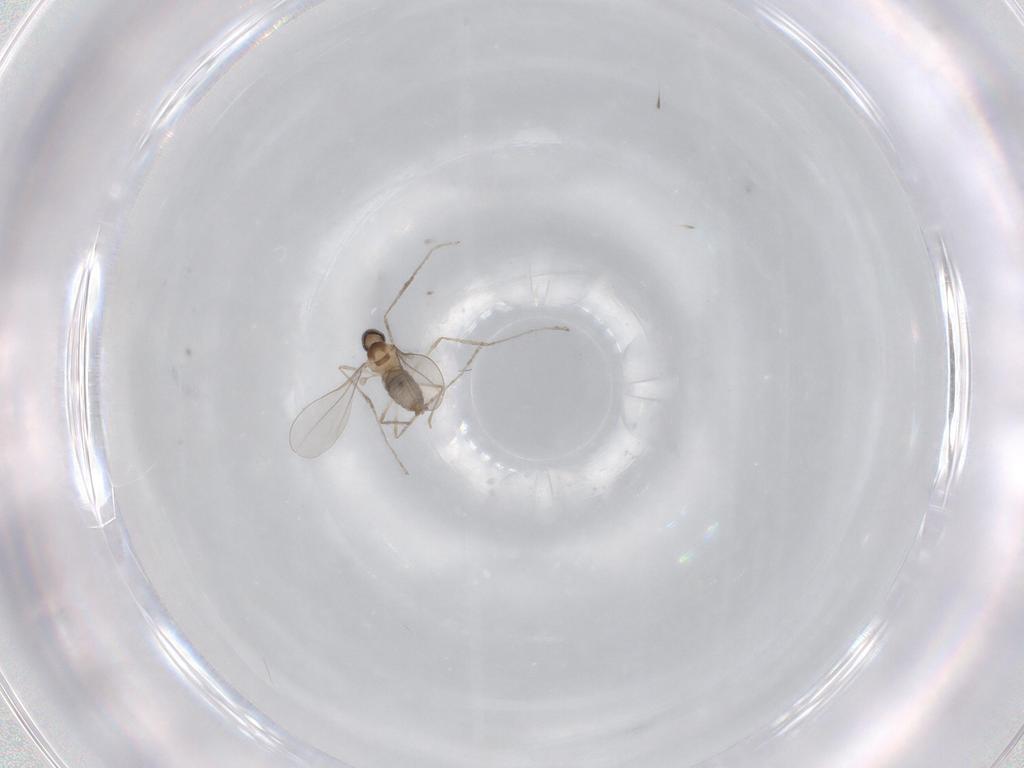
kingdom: Animalia
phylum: Arthropoda
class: Insecta
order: Diptera
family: Cecidomyiidae
